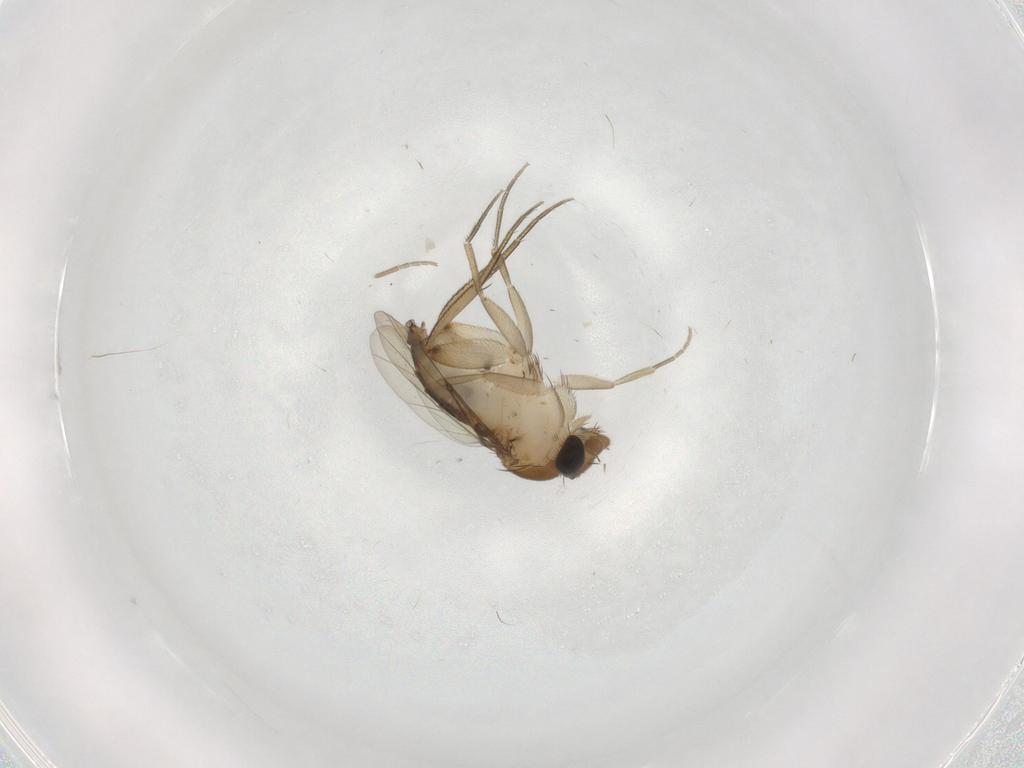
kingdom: Animalia
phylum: Arthropoda
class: Insecta
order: Diptera
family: Phoridae
